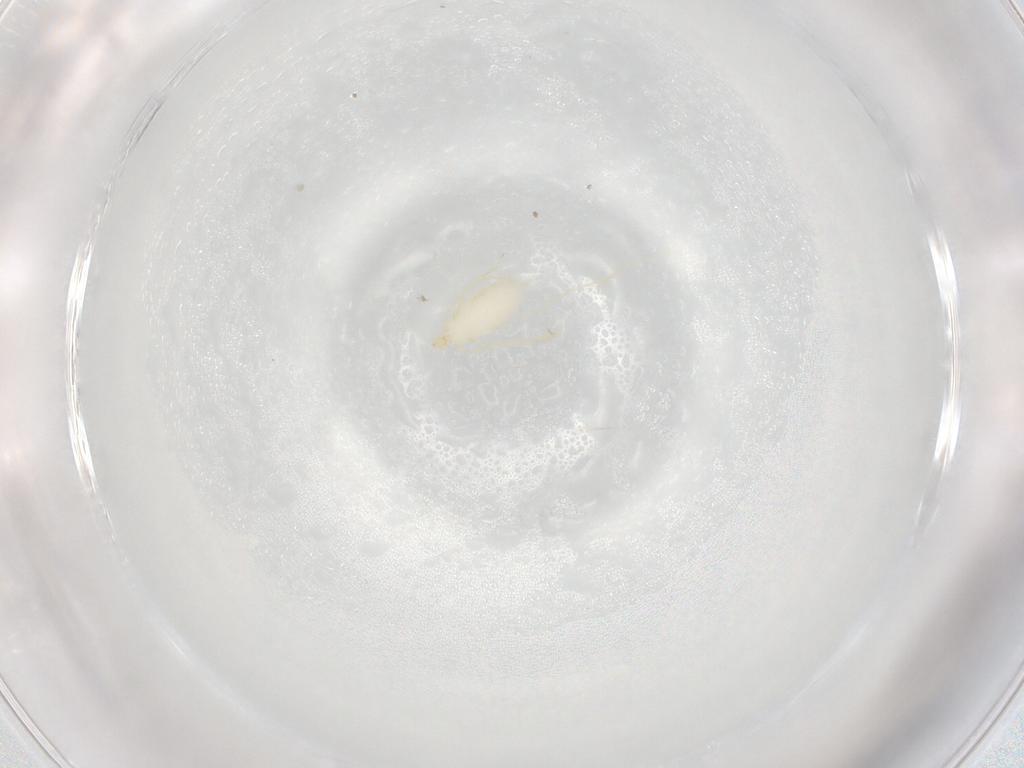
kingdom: Animalia
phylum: Arthropoda
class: Insecta
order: Lepidoptera
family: Blastobasidae
